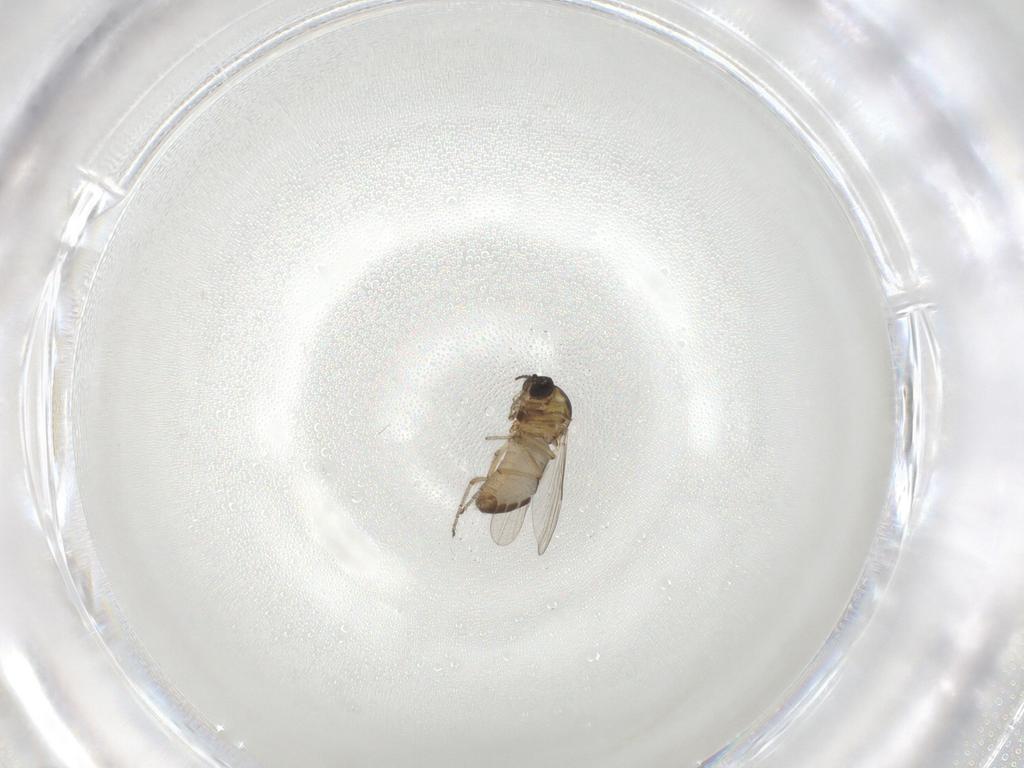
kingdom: Animalia
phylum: Arthropoda
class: Insecta
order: Diptera
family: Ceratopogonidae
